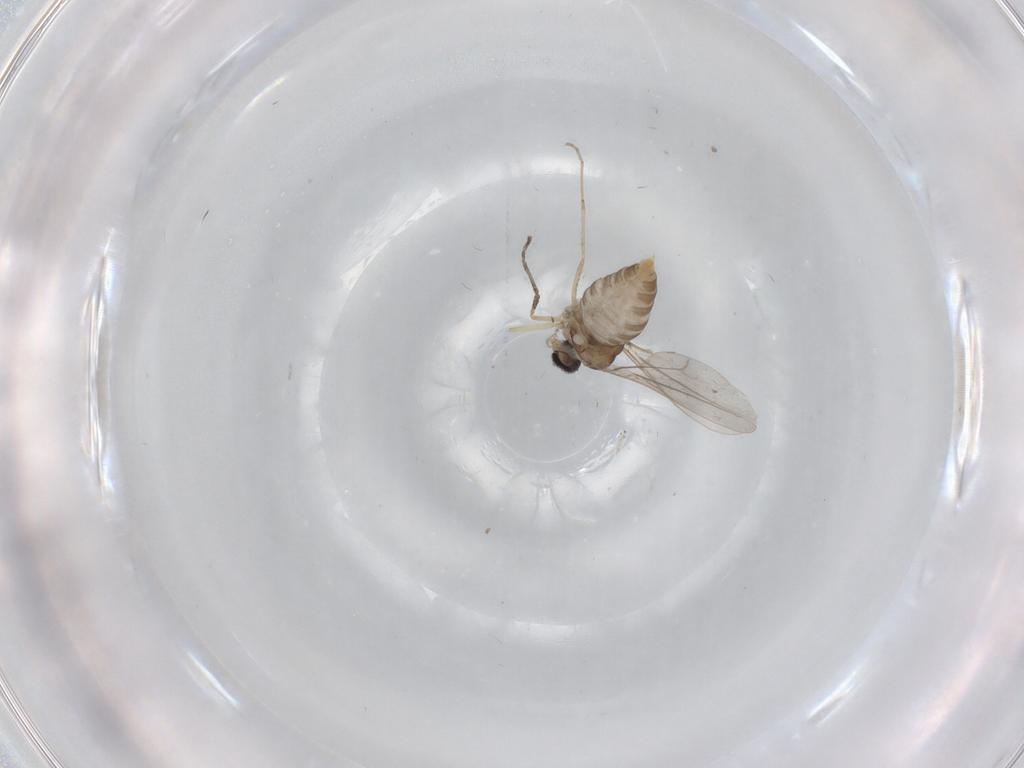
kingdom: Animalia
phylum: Arthropoda
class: Insecta
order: Diptera
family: Cecidomyiidae
